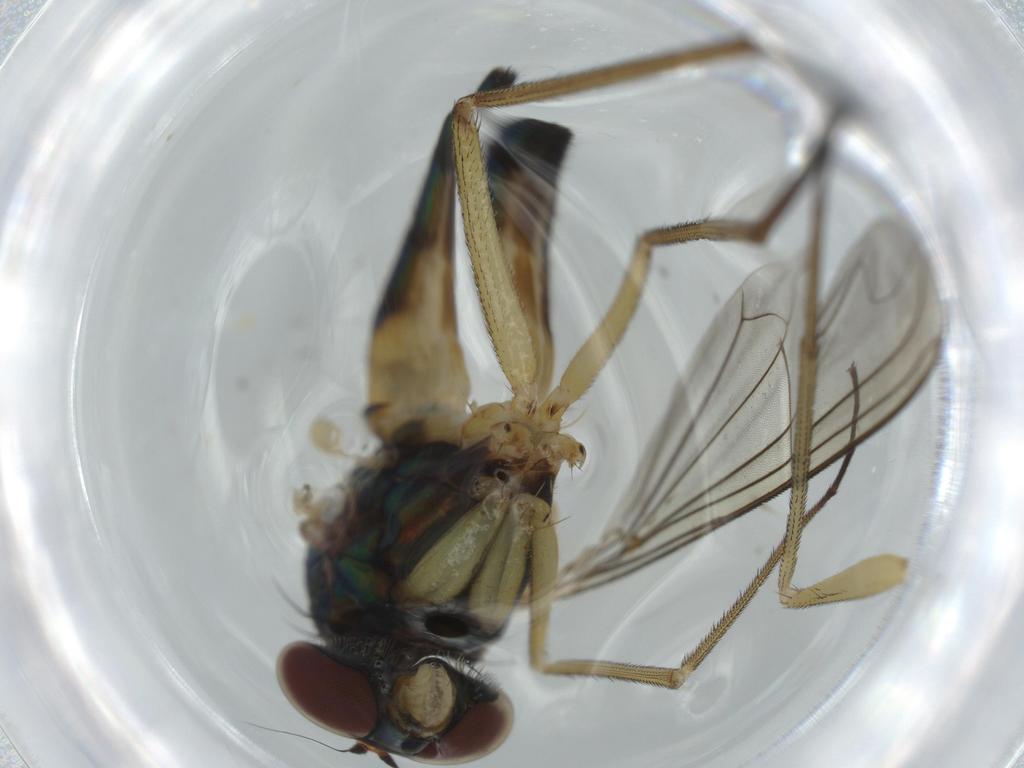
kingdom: Animalia
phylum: Arthropoda
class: Insecta
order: Diptera
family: Dolichopodidae
